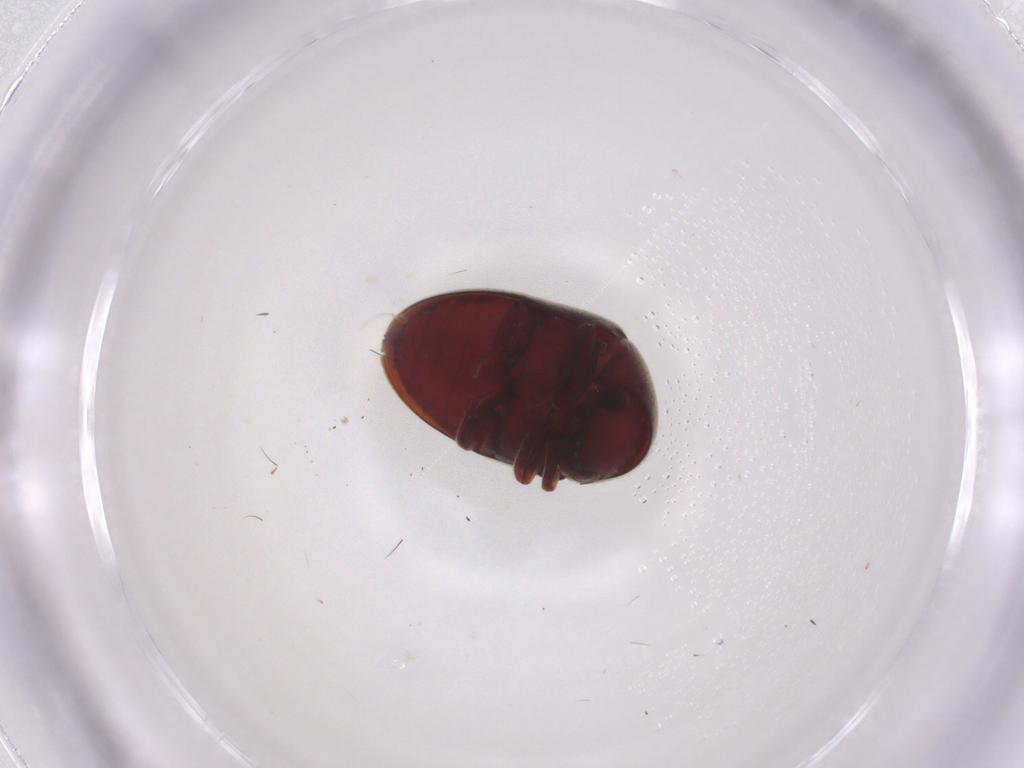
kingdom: Animalia
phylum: Arthropoda
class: Insecta
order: Coleoptera
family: Ptinidae
